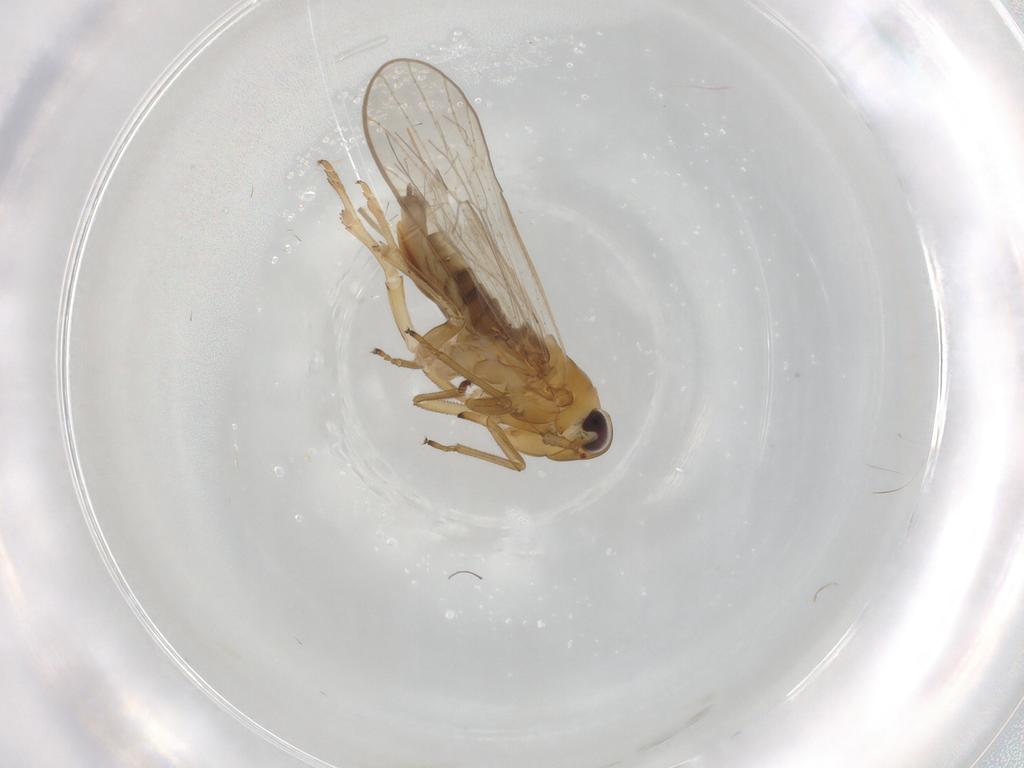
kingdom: Animalia
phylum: Arthropoda
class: Insecta
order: Hemiptera
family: Delphacidae
